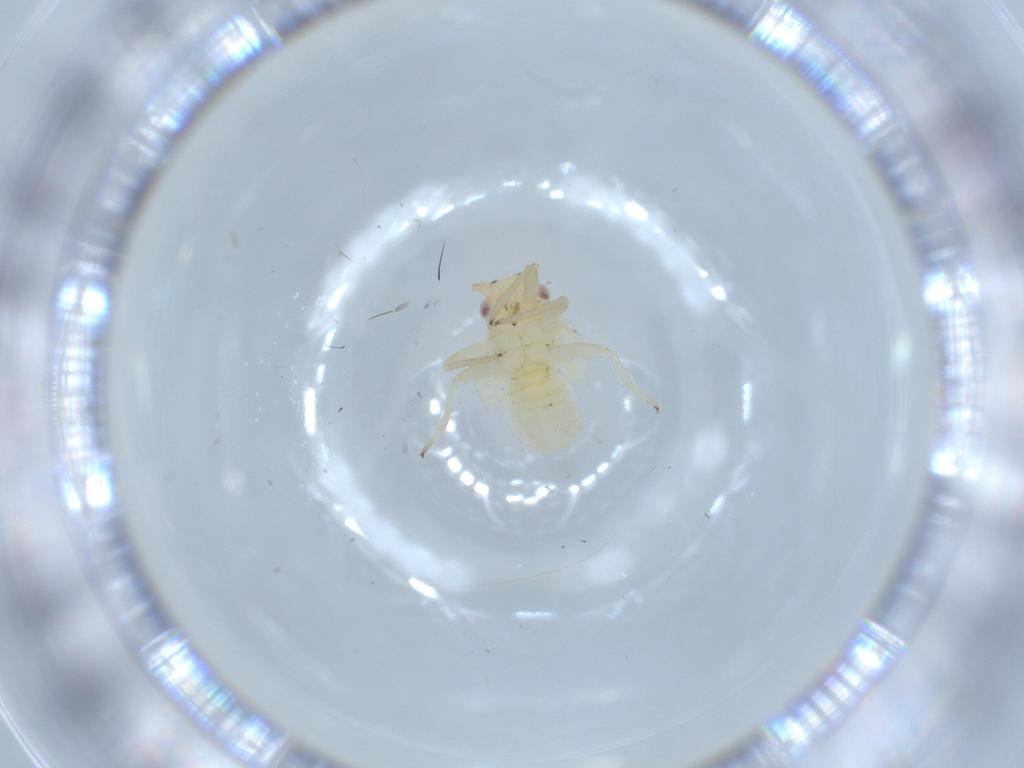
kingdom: Animalia
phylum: Arthropoda
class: Insecta
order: Hemiptera
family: Psyllidae
